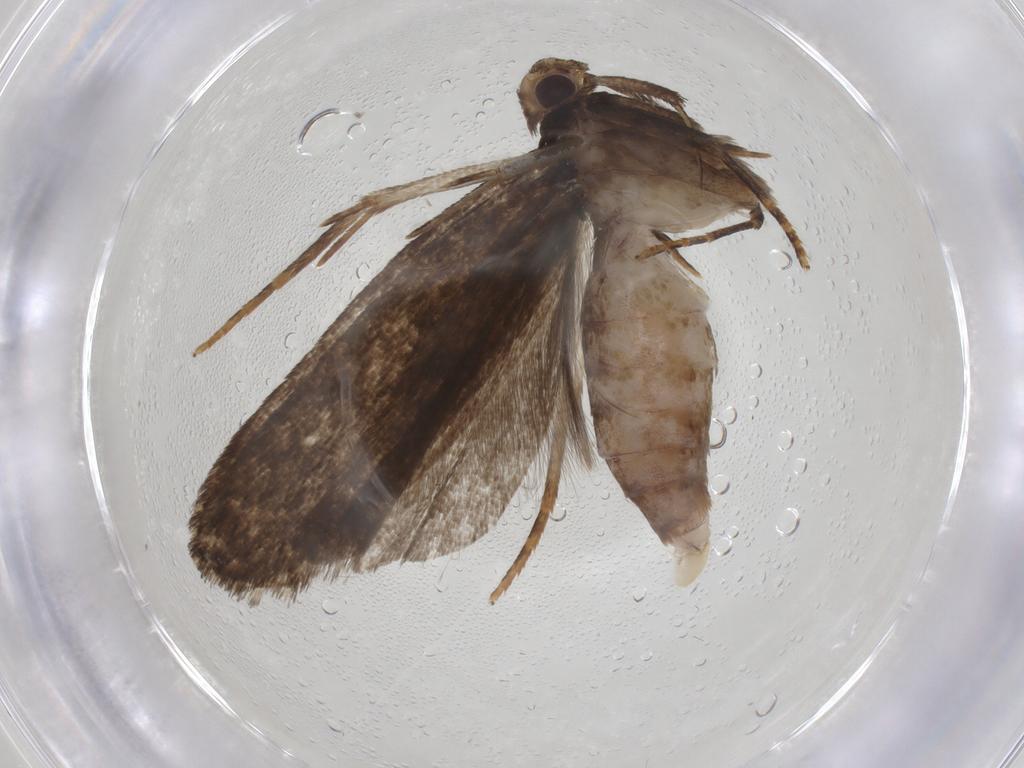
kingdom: Animalia
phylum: Arthropoda
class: Insecta
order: Lepidoptera
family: Gelechiidae
